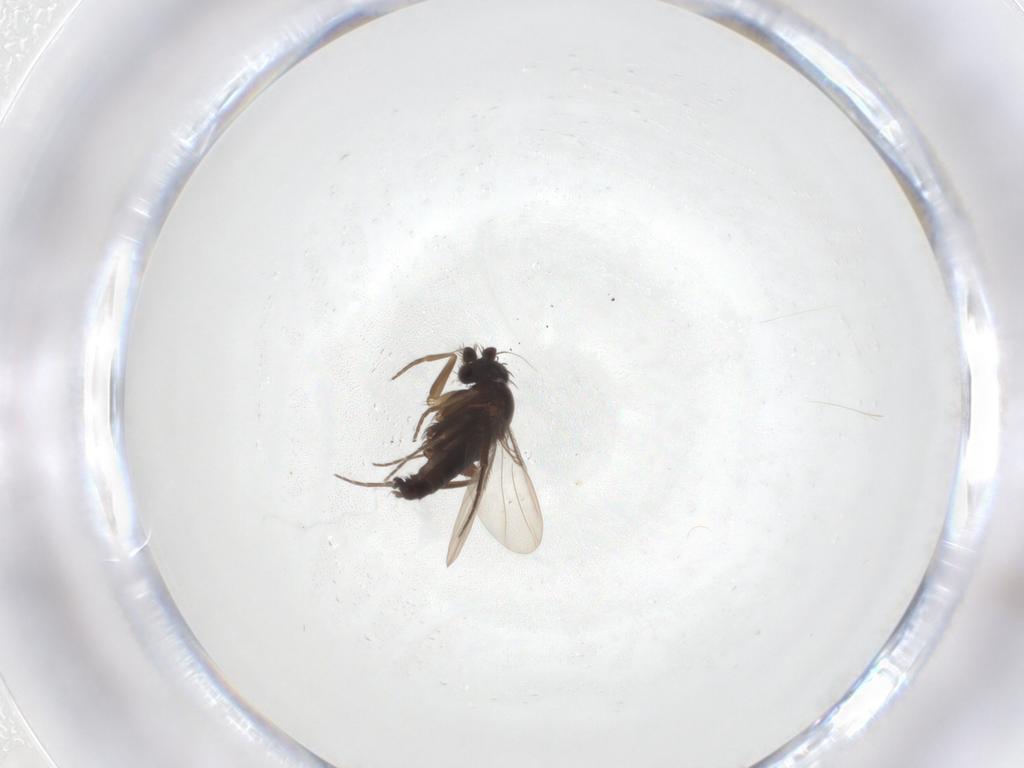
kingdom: Animalia
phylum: Arthropoda
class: Insecta
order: Diptera
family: Phoridae
